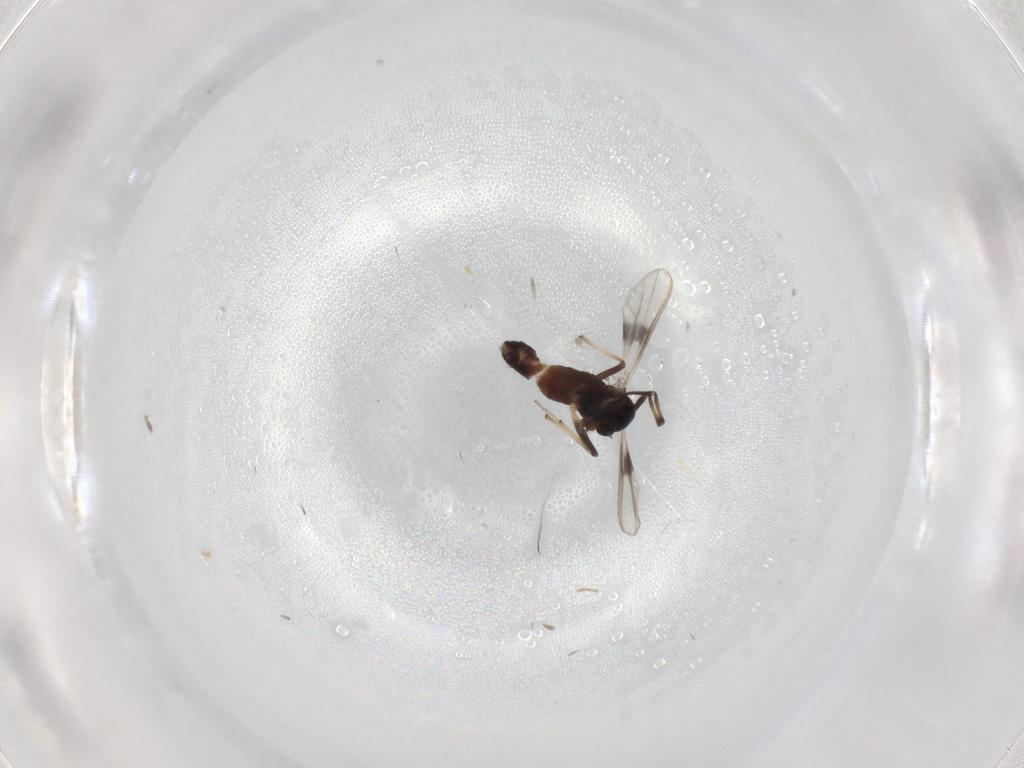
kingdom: Animalia
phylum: Arthropoda
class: Insecta
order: Diptera
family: Chironomidae
